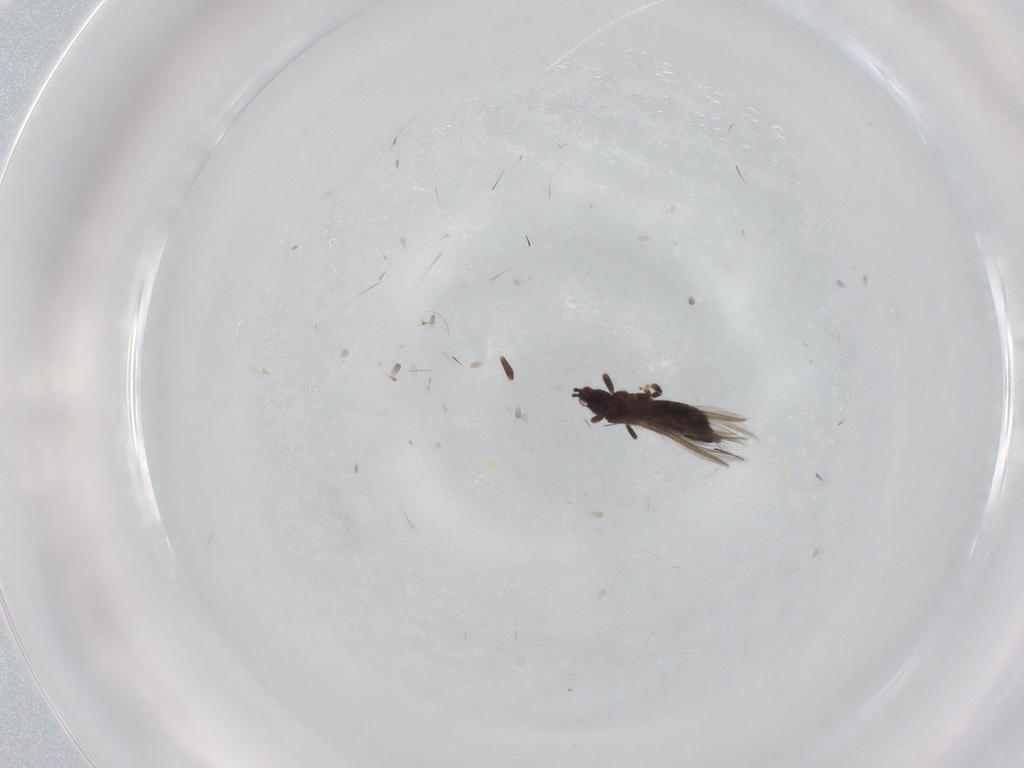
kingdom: Animalia
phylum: Arthropoda
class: Insecta
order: Thysanoptera
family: Thripidae
